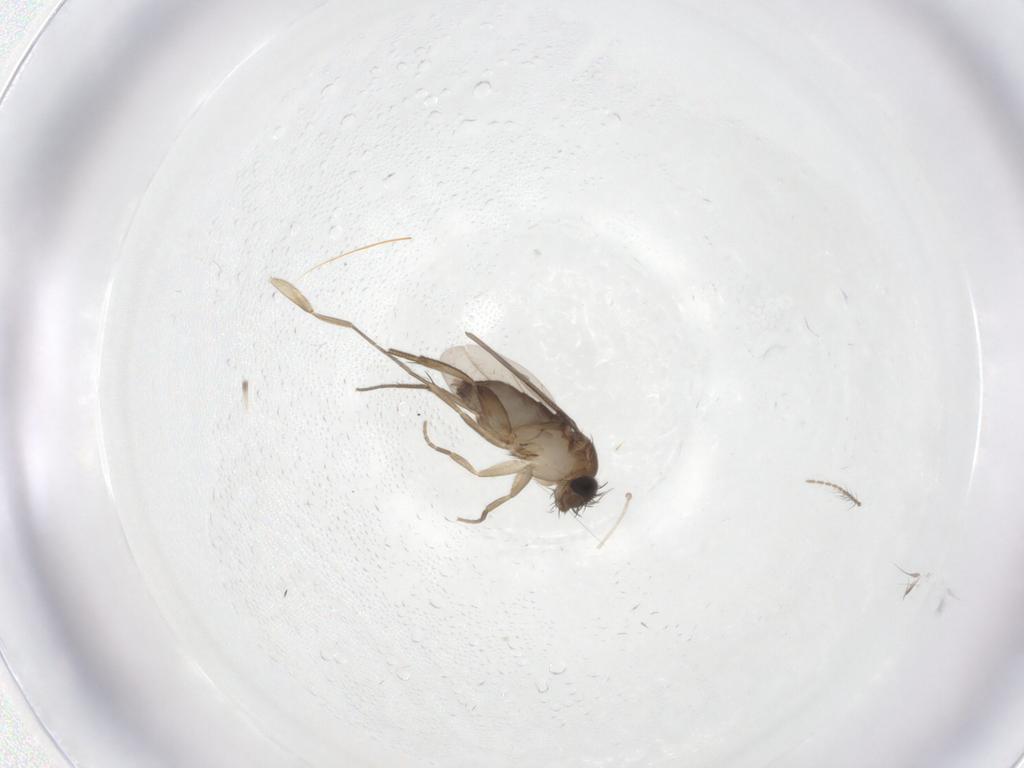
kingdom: Animalia
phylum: Arthropoda
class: Insecta
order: Diptera
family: Phoridae
